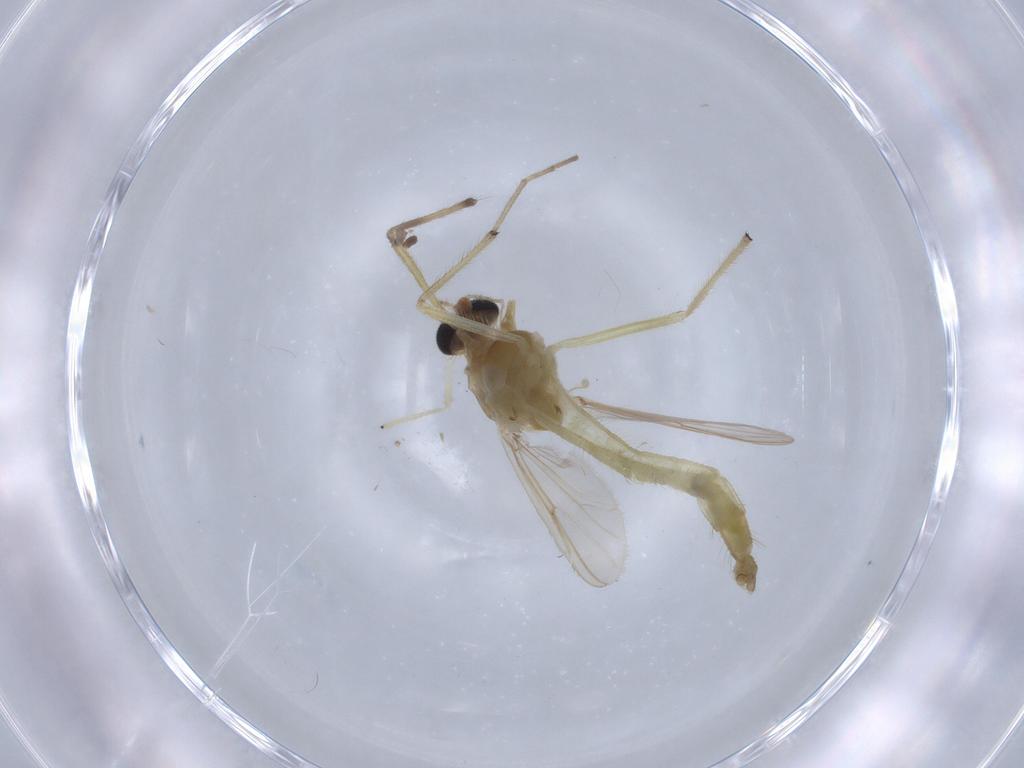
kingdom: Animalia
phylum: Arthropoda
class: Insecta
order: Diptera
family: Chironomidae
